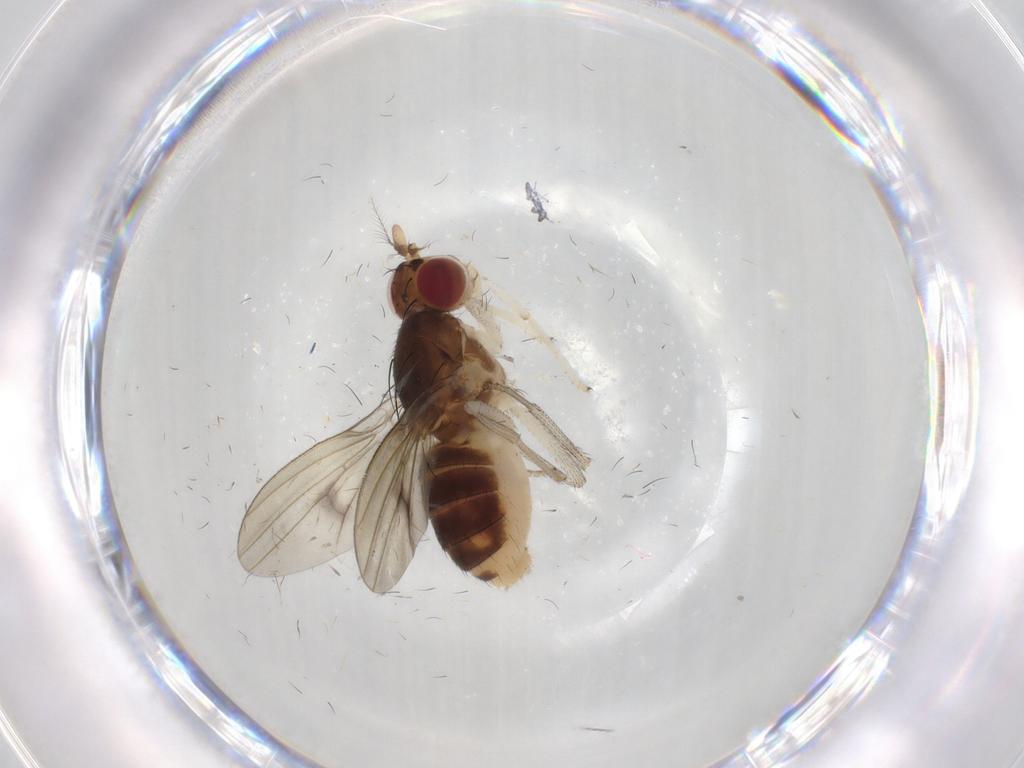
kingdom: Animalia
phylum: Arthropoda
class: Insecta
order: Diptera
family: Lauxaniidae
